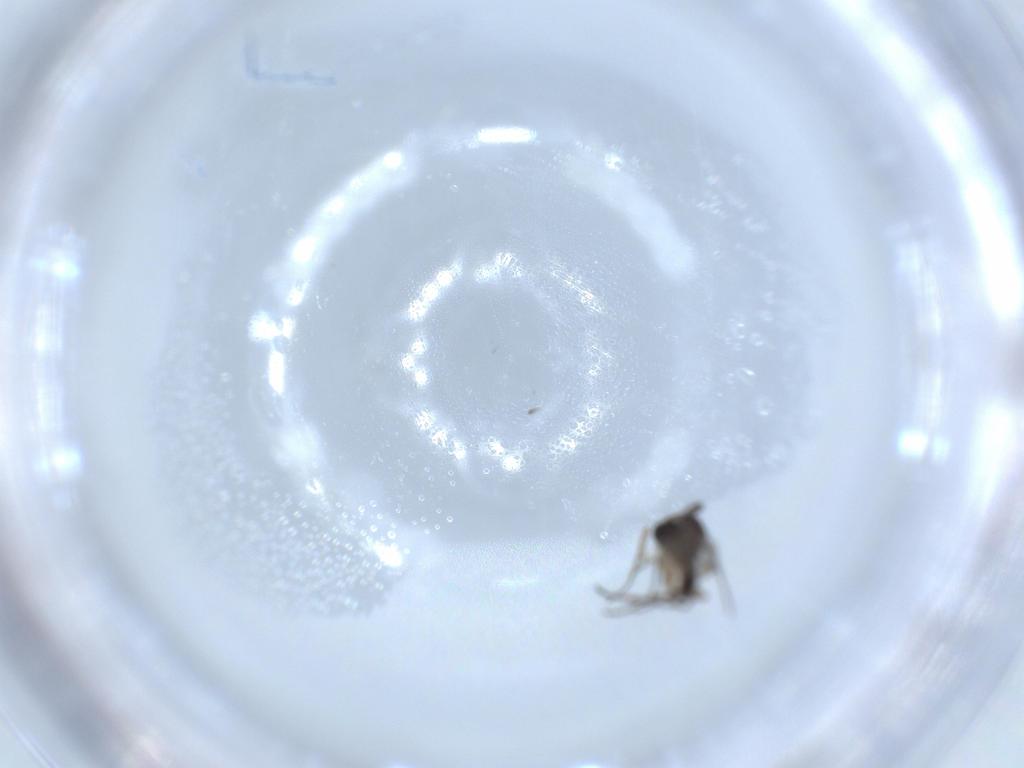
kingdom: Animalia
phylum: Arthropoda
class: Insecta
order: Diptera
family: Sciaridae
